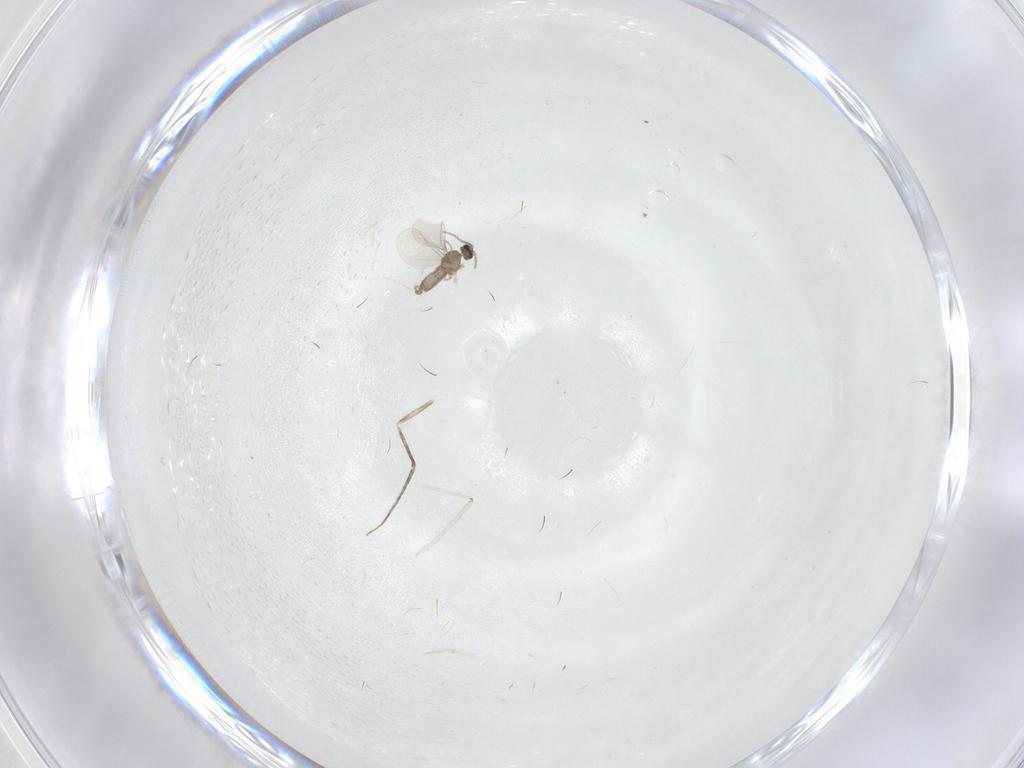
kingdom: Animalia
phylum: Arthropoda
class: Insecta
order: Diptera
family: Cecidomyiidae
